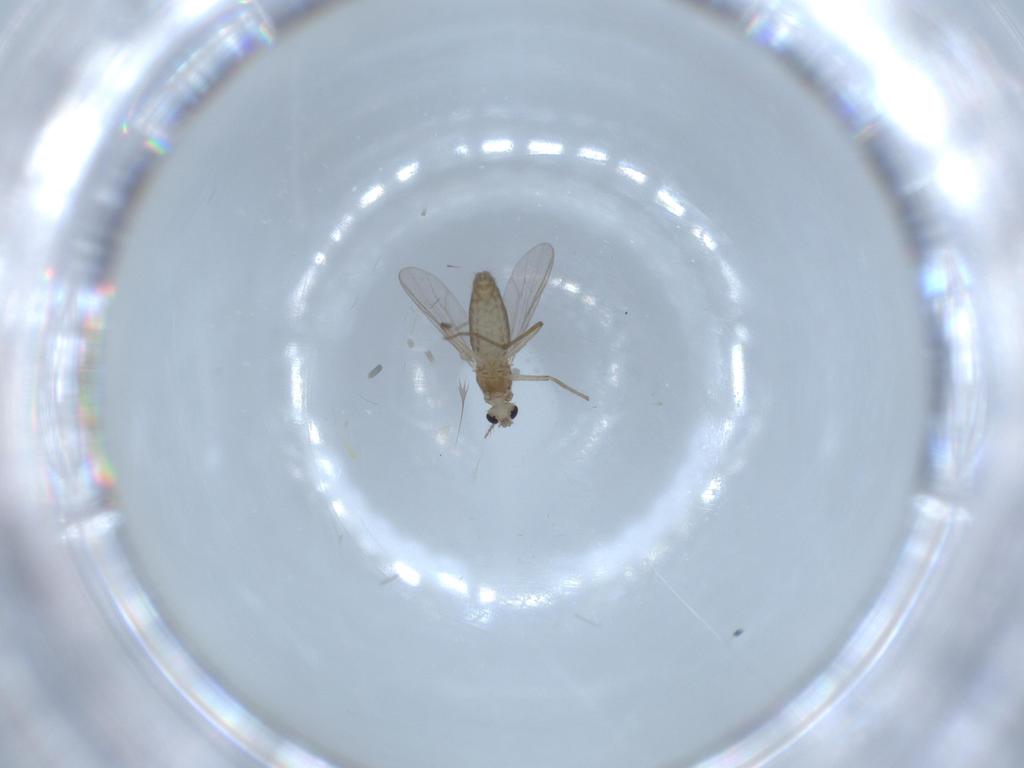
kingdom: Animalia
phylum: Arthropoda
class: Insecta
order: Diptera
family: Chironomidae
